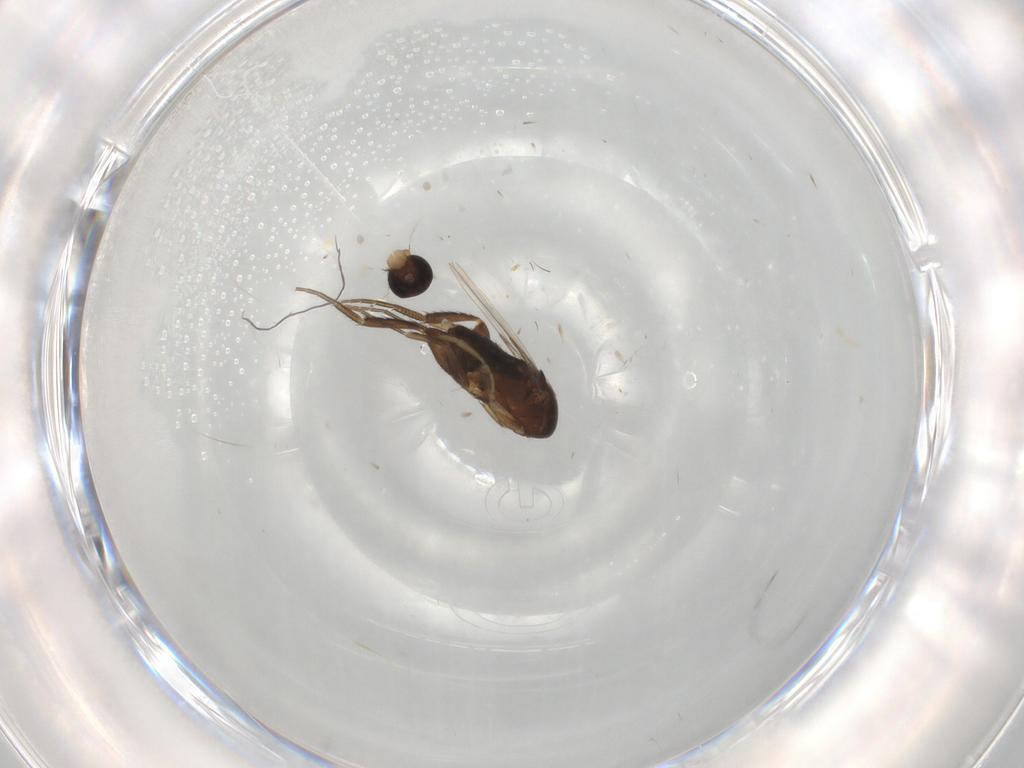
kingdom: Animalia
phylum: Arthropoda
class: Insecta
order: Diptera
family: Phoridae
